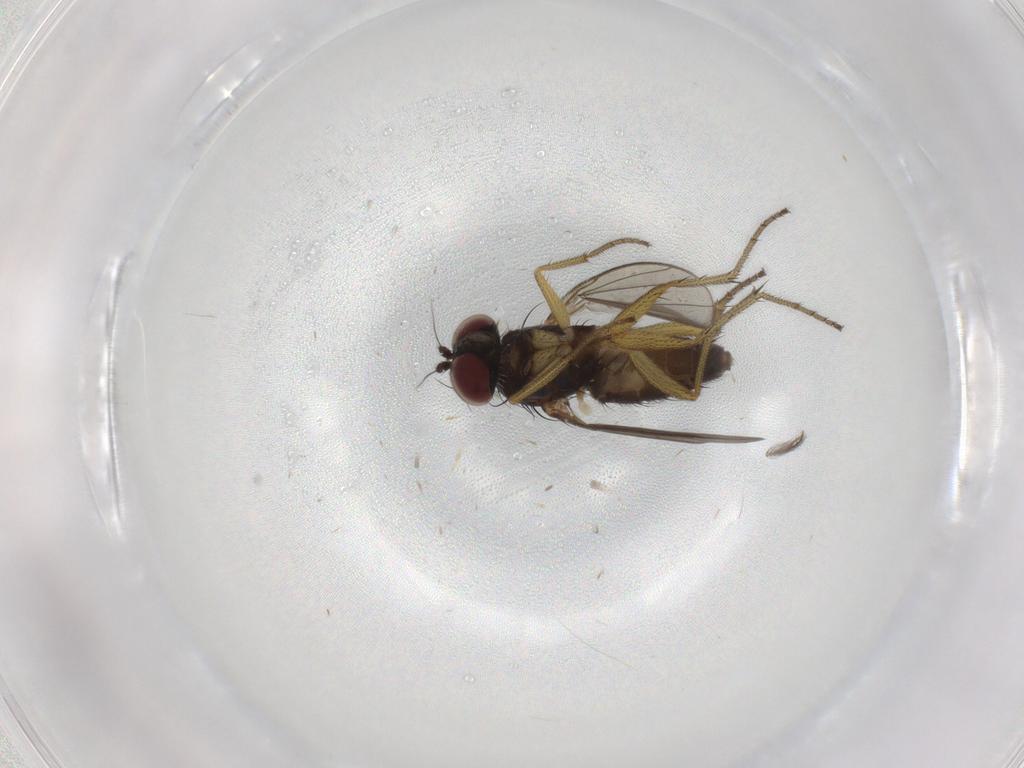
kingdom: Animalia
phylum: Arthropoda
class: Insecta
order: Diptera
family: Ceratopogonidae
